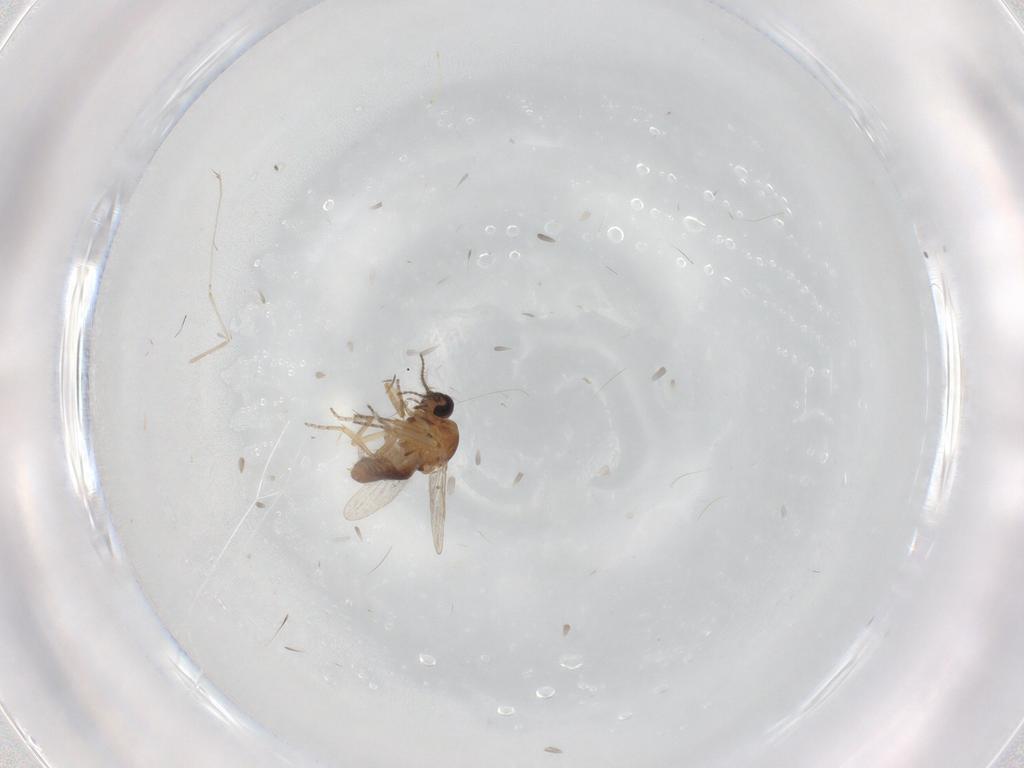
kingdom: Animalia
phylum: Arthropoda
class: Insecta
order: Diptera
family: Ceratopogonidae
